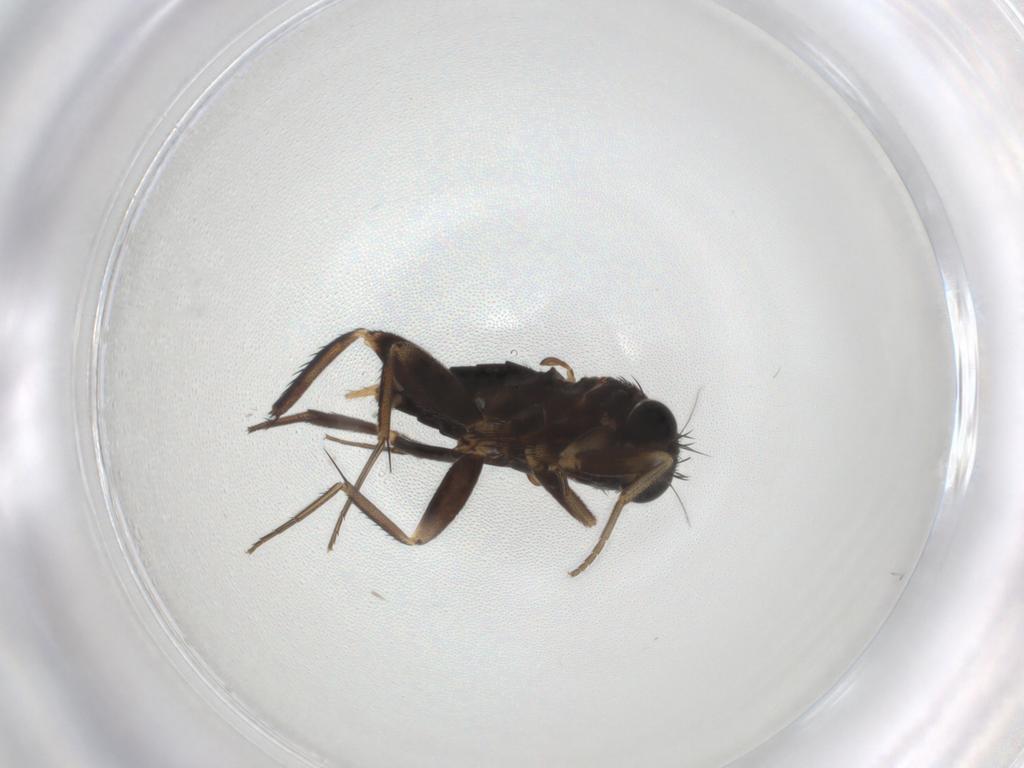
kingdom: Animalia
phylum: Arthropoda
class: Insecta
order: Diptera
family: Chironomidae
